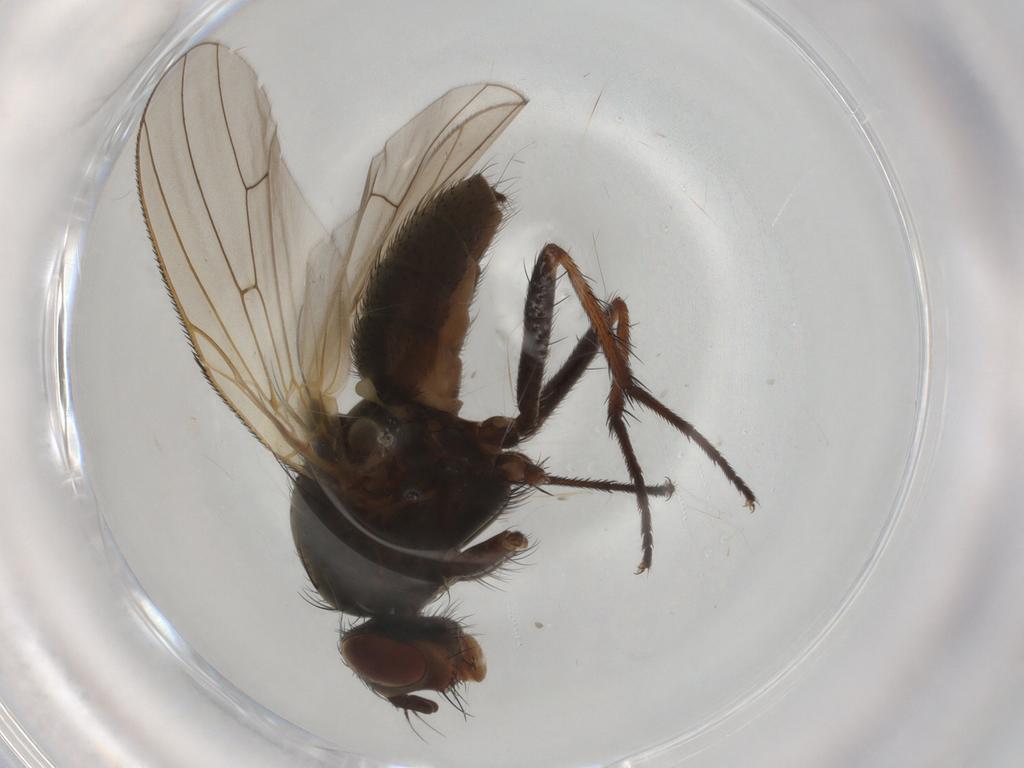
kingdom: Animalia
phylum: Arthropoda
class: Insecta
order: Diptera
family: Anthomyiidae
